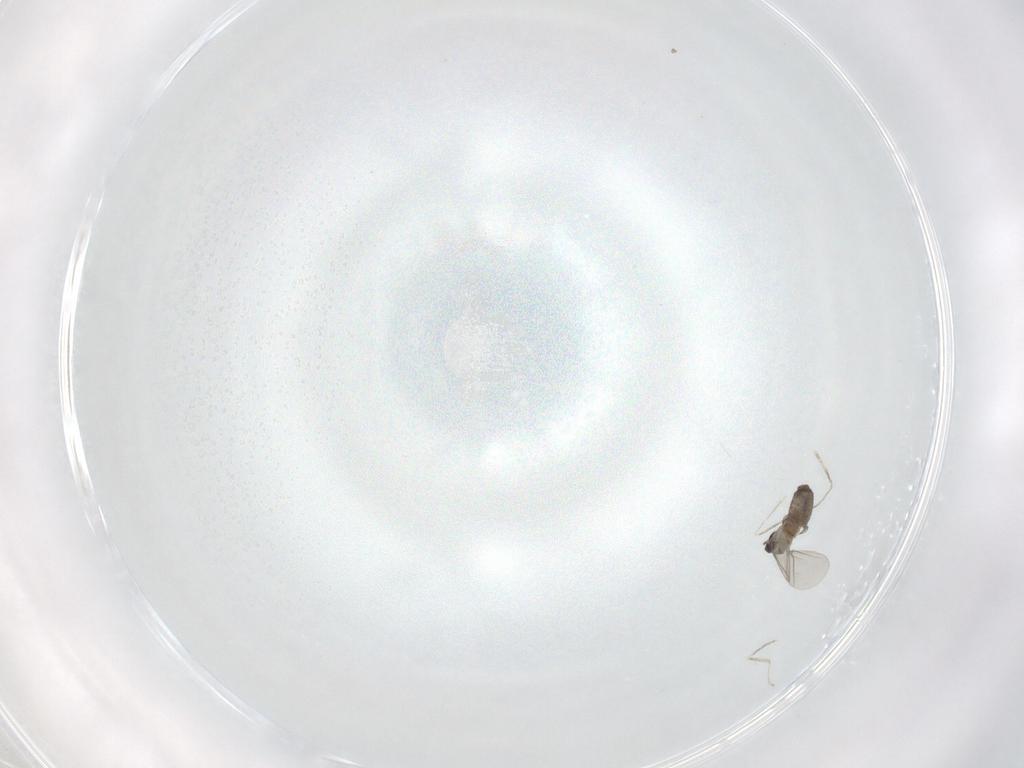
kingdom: Animalia
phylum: Arthropoda
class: Insecta
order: Diptera
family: Cecidomyiidae
